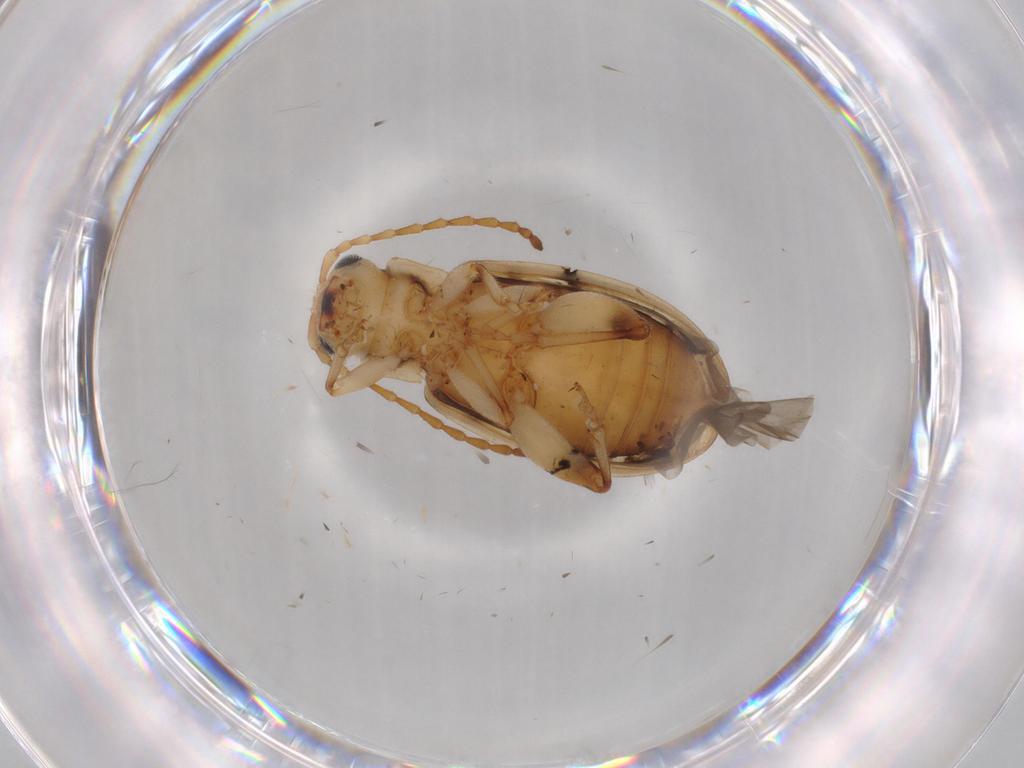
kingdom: Animalia
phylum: Arthropoda
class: Insecta
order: Coleoptera
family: Chrysomelidae
